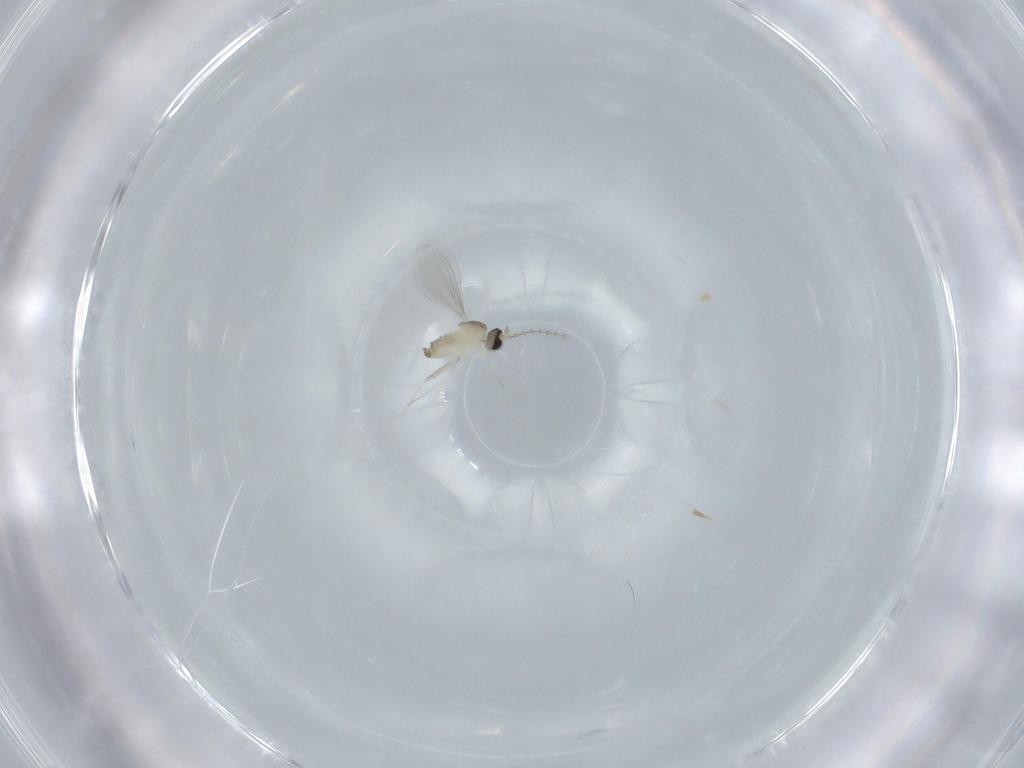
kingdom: Animalia
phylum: Arthropoda
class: Insecta
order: Diptera
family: Cecidomyiidae
